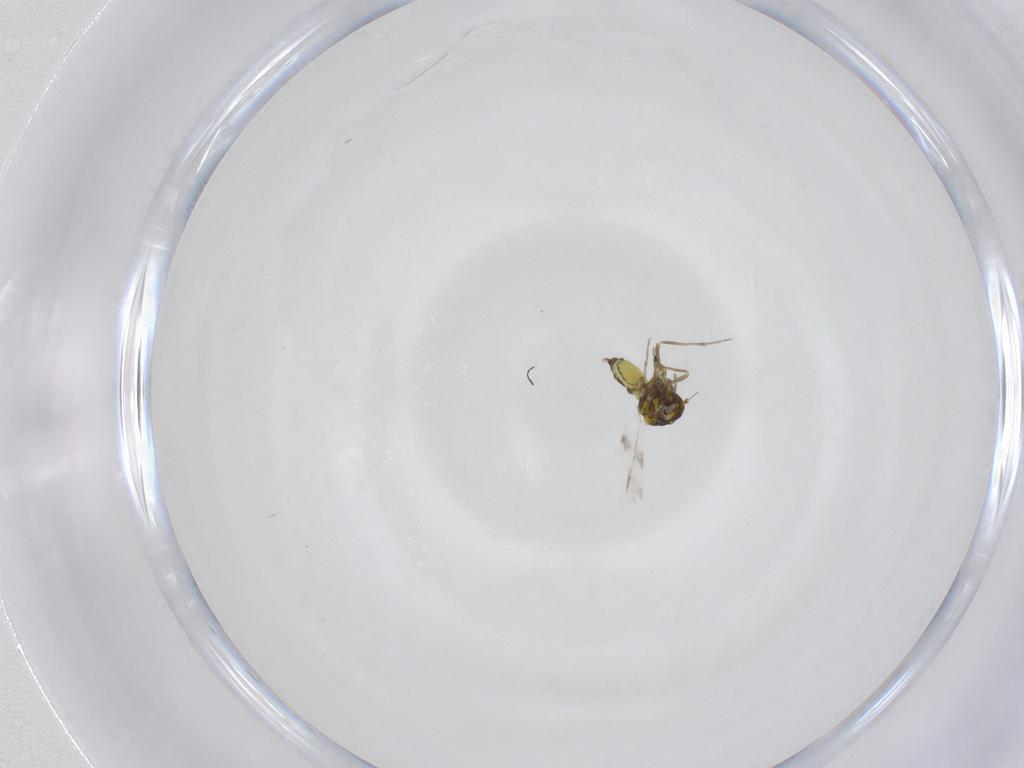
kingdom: Animalia
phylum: Arthropoda
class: Insecta
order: Hemiptera
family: Aleyrodidae
